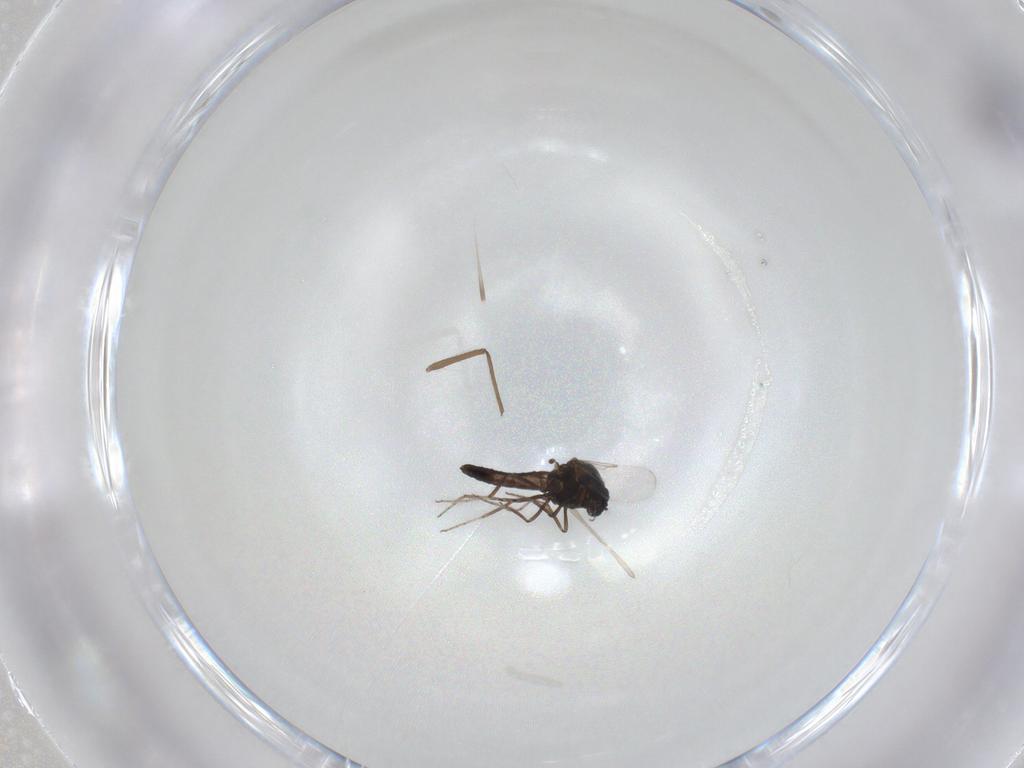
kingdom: Animalia
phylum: Arthropoda
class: Insecta
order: Diptera
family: Ceratopogonidae
